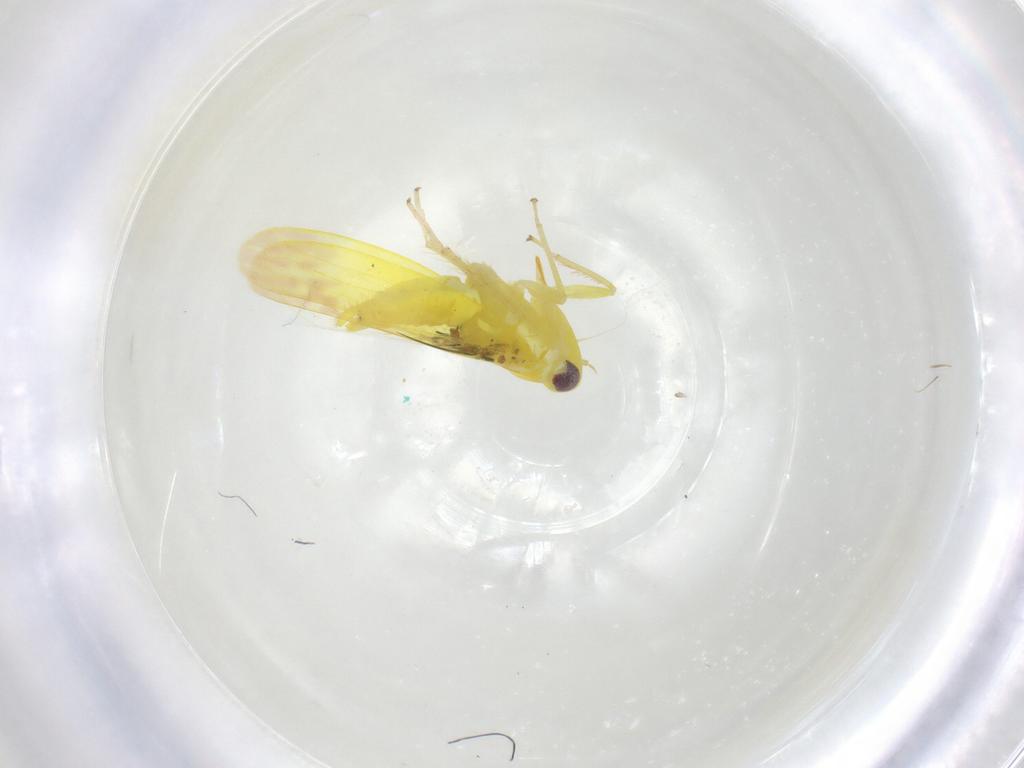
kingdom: Animalia
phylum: Arthropoda
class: Insecta
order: Hemiptera
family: Cicadellidae
